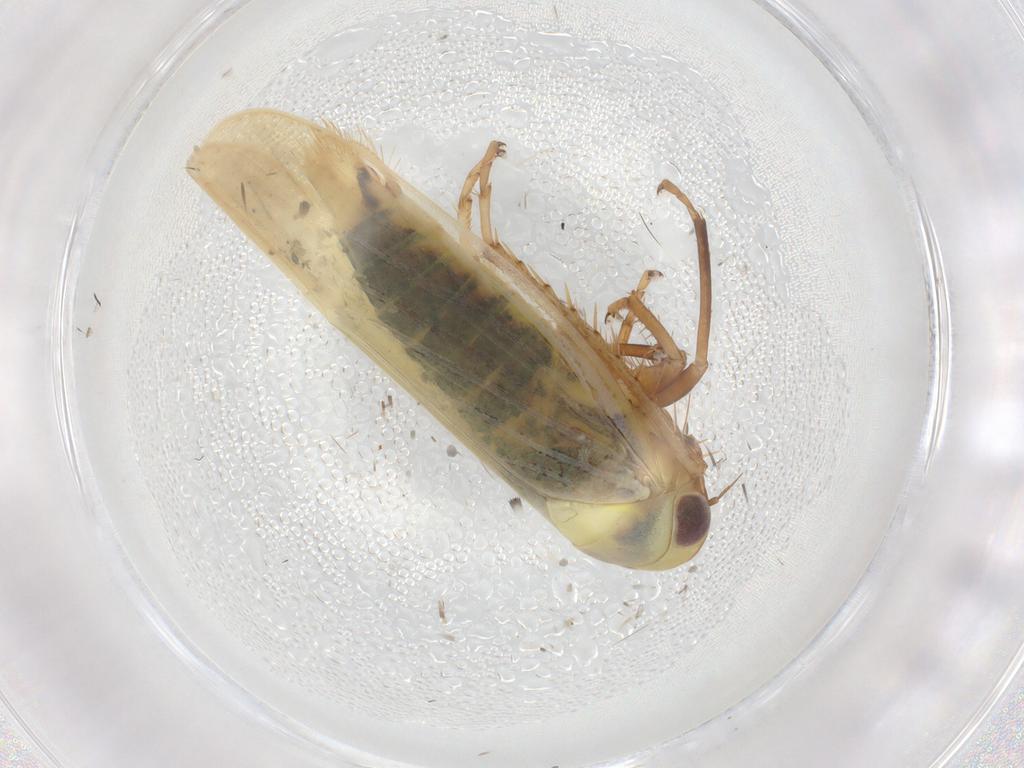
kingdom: Animalia
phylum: Arthropoda
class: Insecta
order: Hemiptera
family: Cicadellidae
